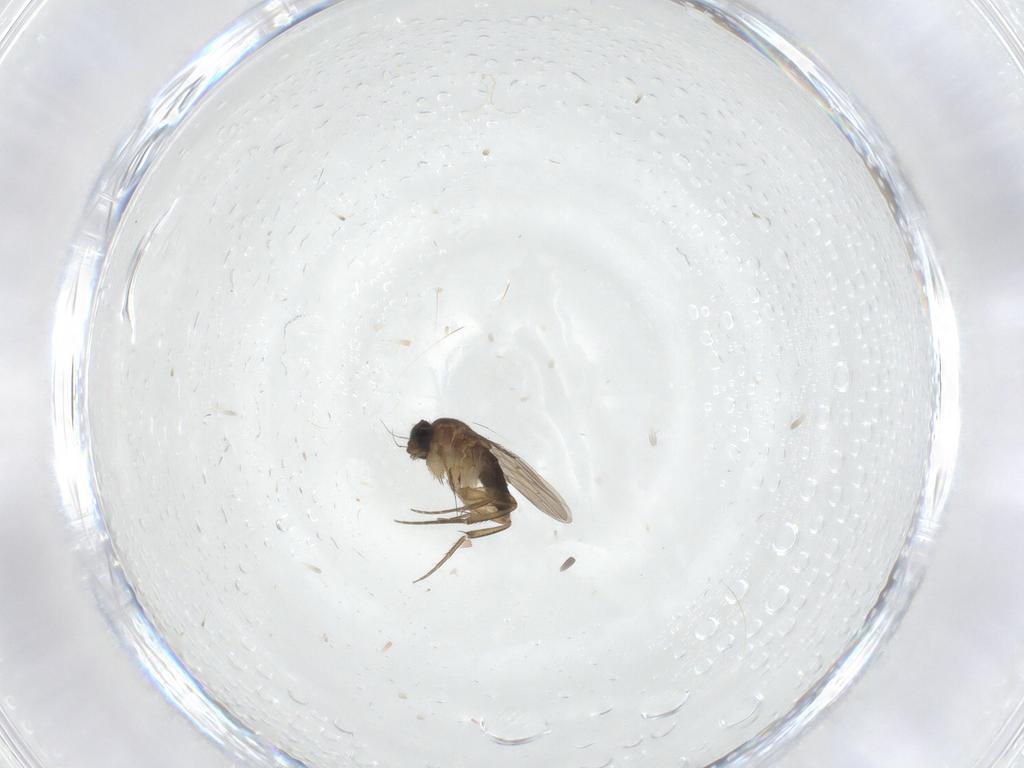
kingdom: Animalia
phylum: Arthropoda
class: Insecta
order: Diptera
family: Phoridae
